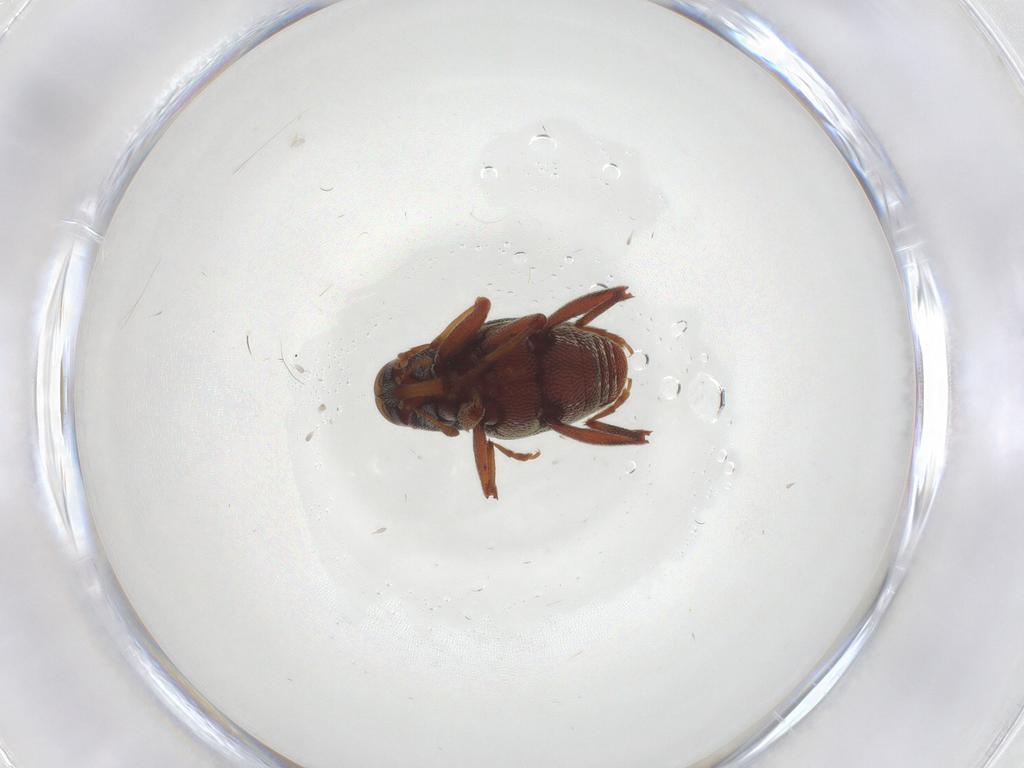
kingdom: Animalia
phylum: Arthropoda
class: Insecta
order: Coleoptera
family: Curculionidae
